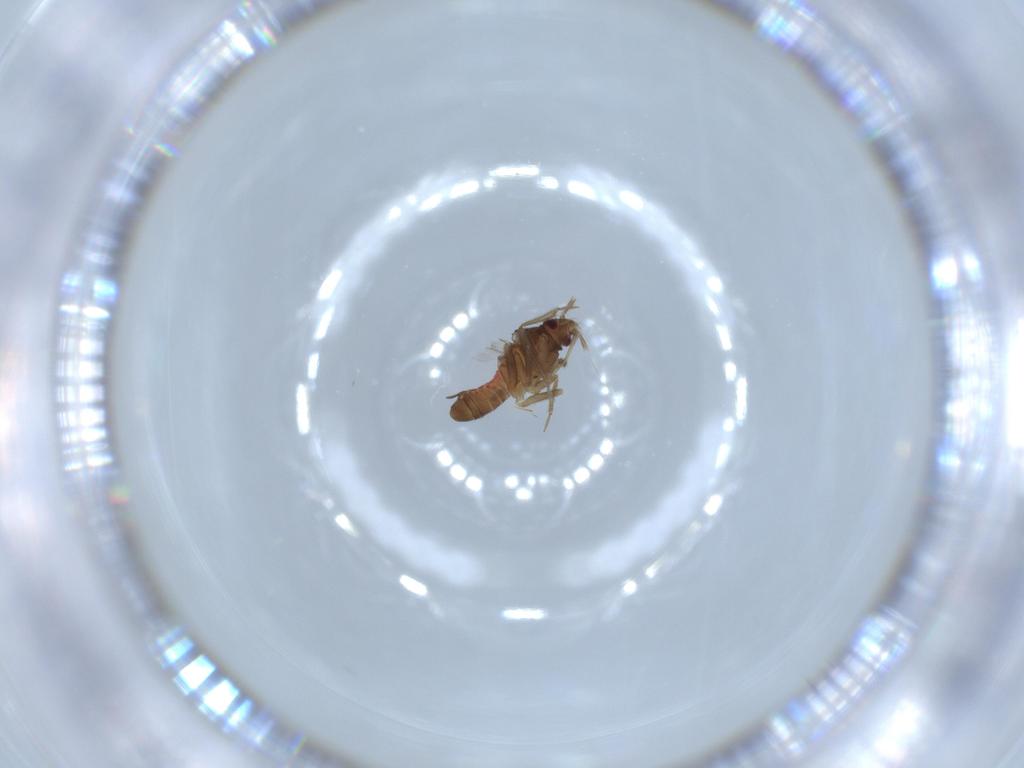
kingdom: Animalia
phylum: Arthropoda
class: Insecta
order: Hemiptera
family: Ceratocombidae
